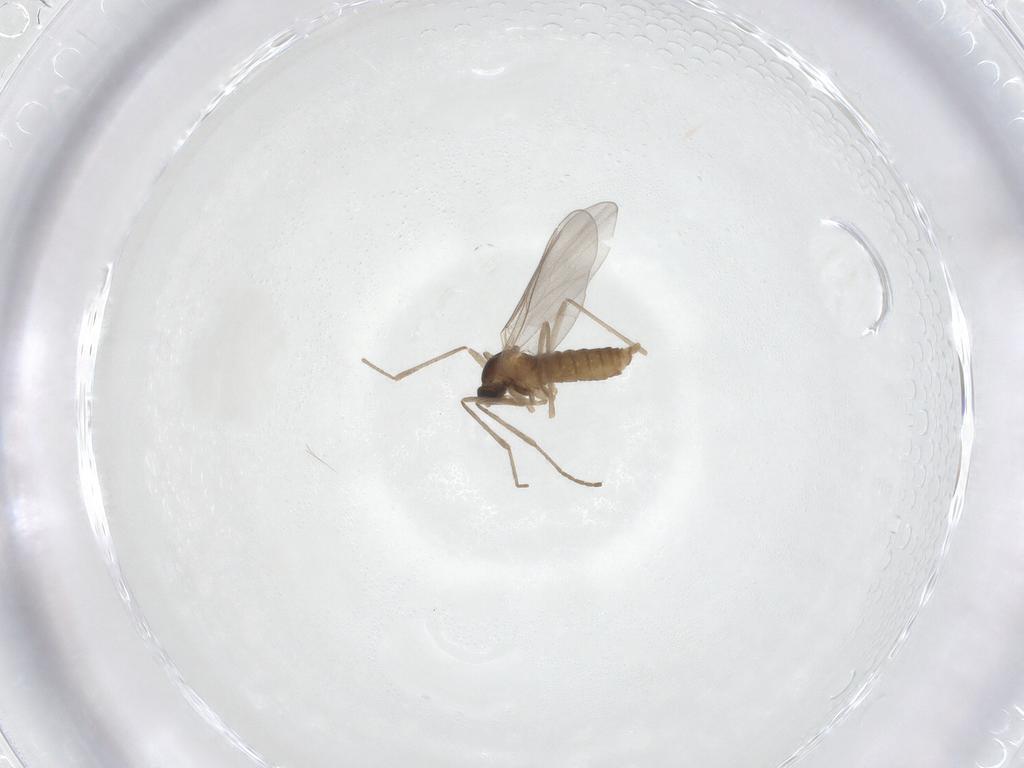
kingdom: Animalia
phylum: Arthropoda
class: Insecta
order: Diptera
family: Cecidomyiidae
